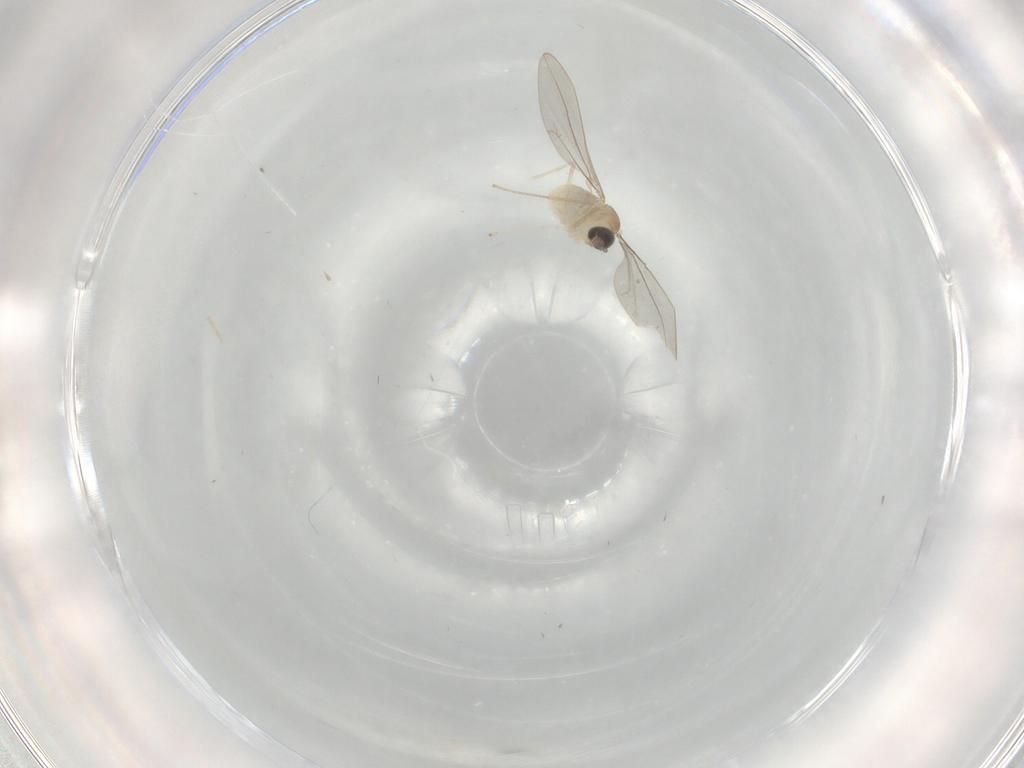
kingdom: Animalia
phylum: Arthropoda
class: Insecta
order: Diptera
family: Cecidomyiidae
